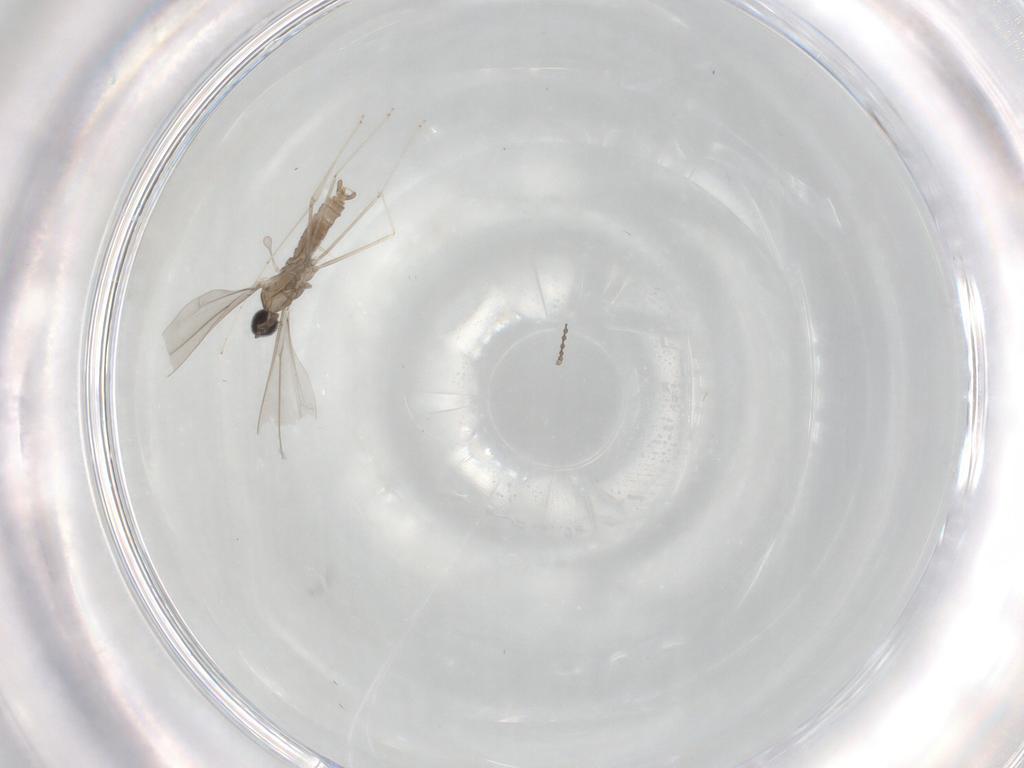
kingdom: Animalia
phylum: Arthropoda
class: Insecta
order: Diptera
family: Cecidomyiidae
